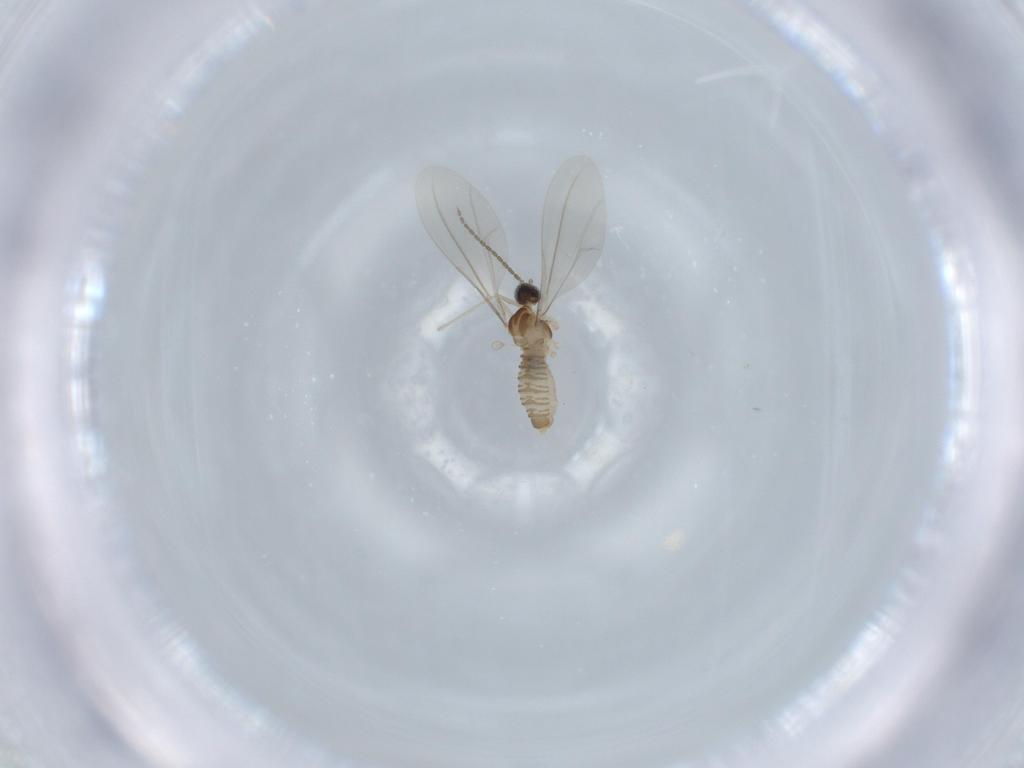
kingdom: Animalia
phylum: Arthropoda
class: Insecta
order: Diptera
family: Cecidomyiidae
